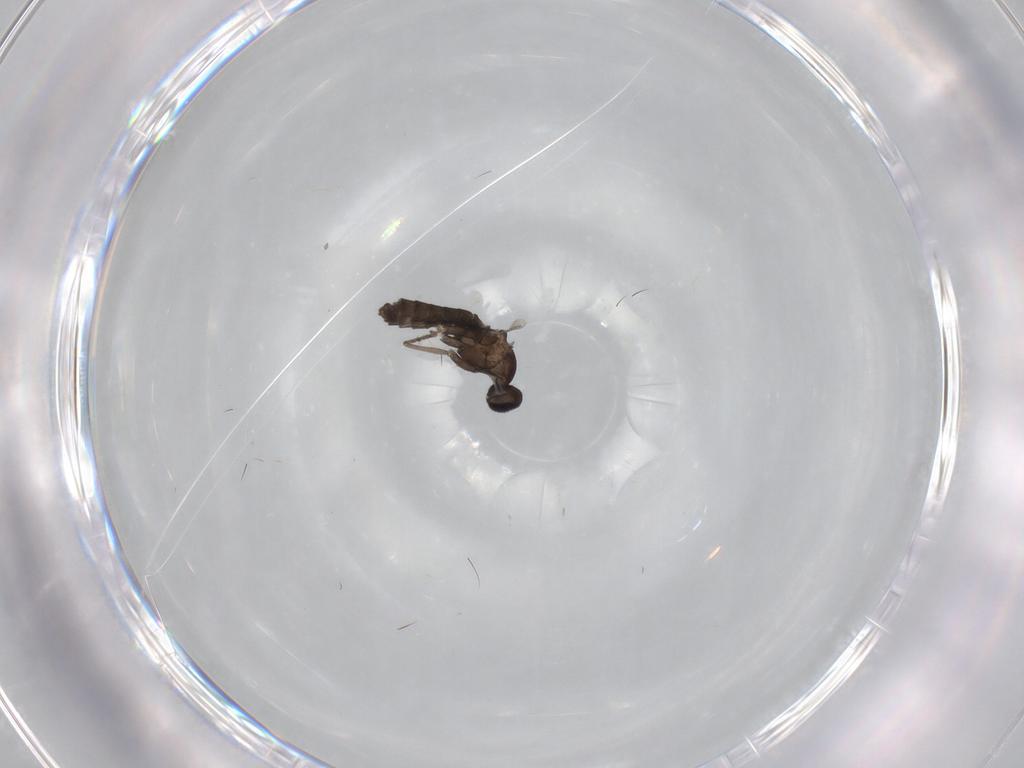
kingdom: Animalia
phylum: Arthropoda
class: Insecta
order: Diptera
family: Cecidomyiidae
